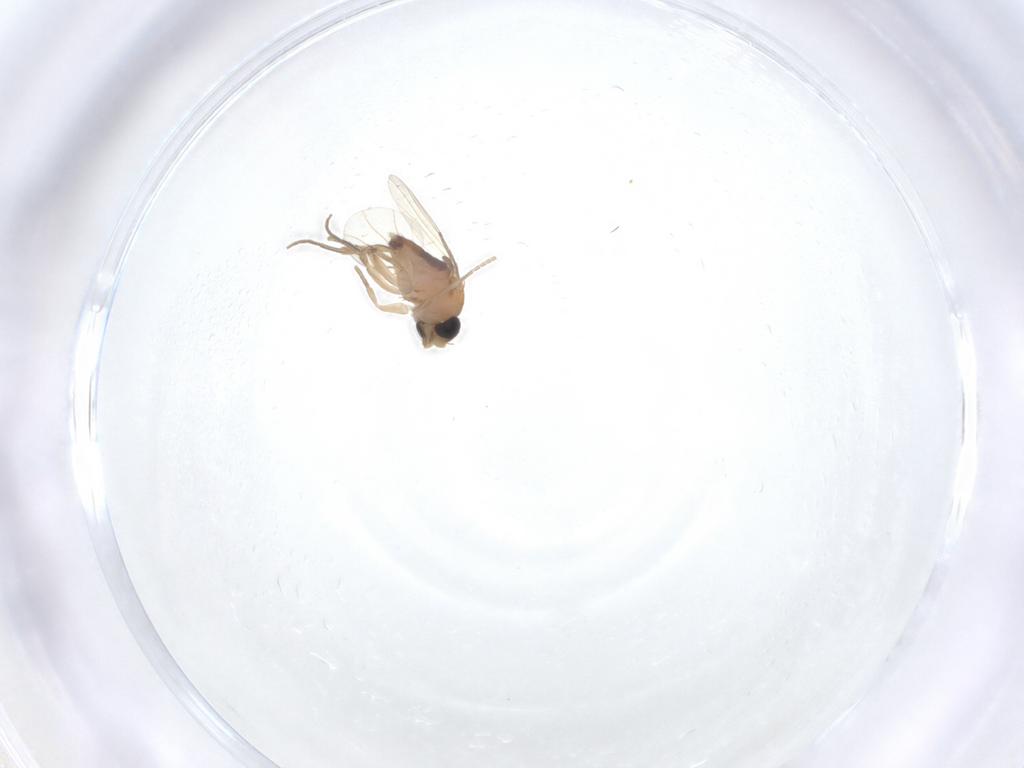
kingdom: Animalia
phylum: Arthropoda
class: Insecta
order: Diptera
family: Phoridae
